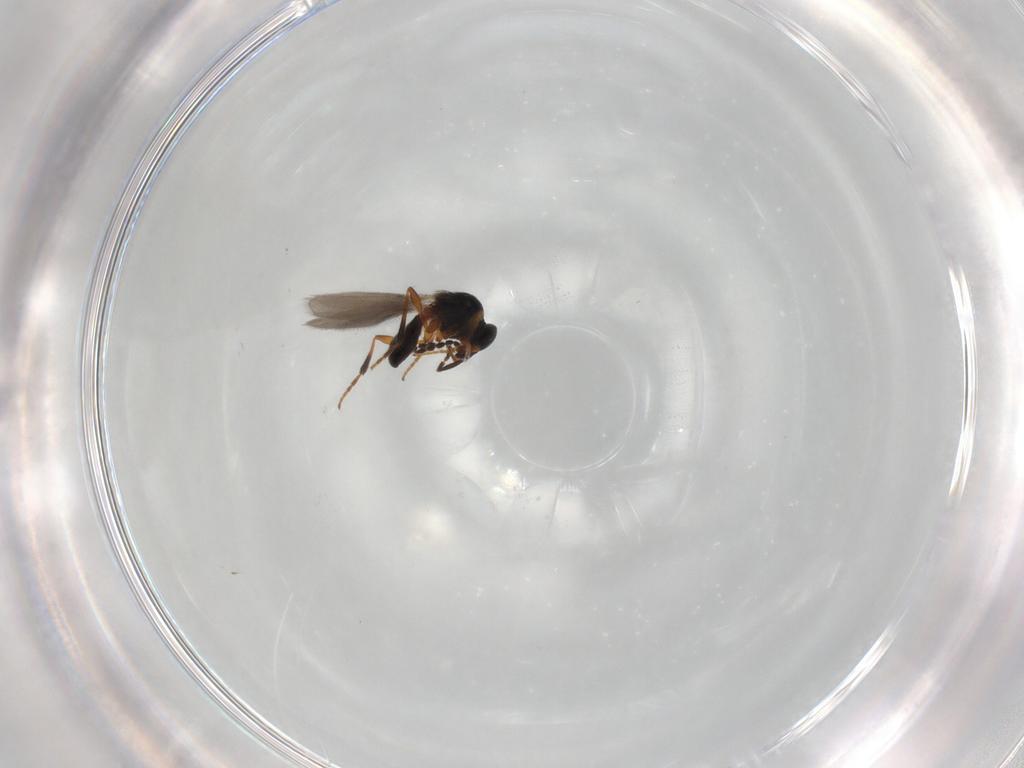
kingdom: Animalia
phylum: Arthropoda
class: Insecta
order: Hymenoptera
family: Platygastridae
